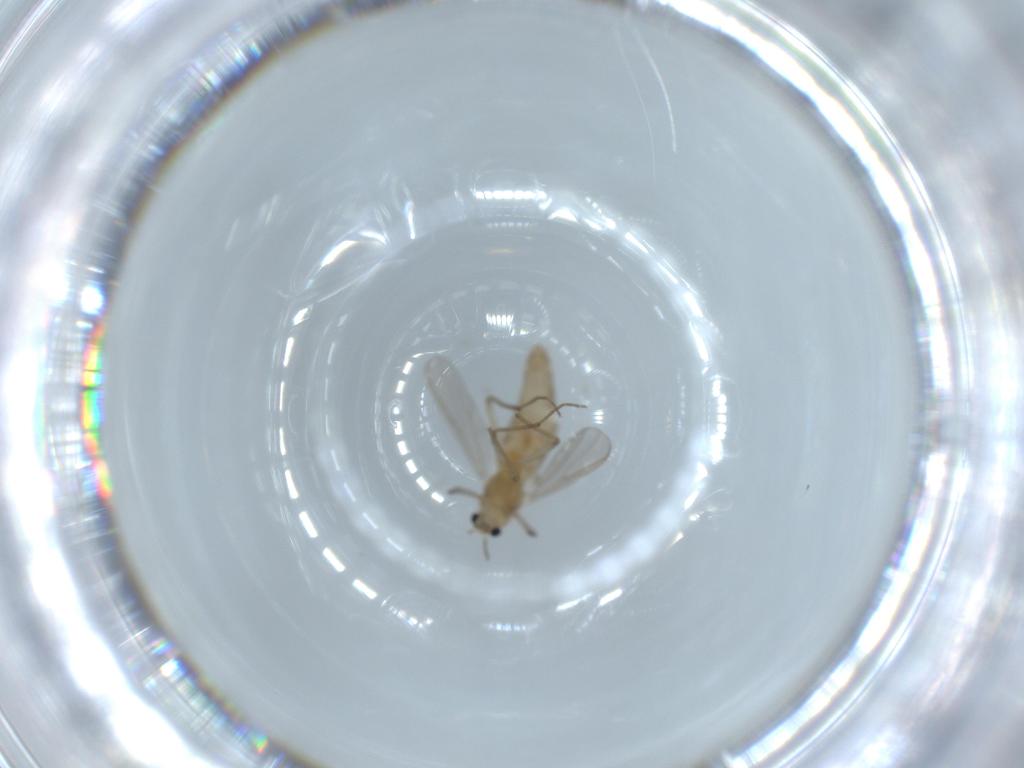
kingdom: Animalia
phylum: Arthropoda
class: Insecta
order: Diptera
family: Chironomidae
